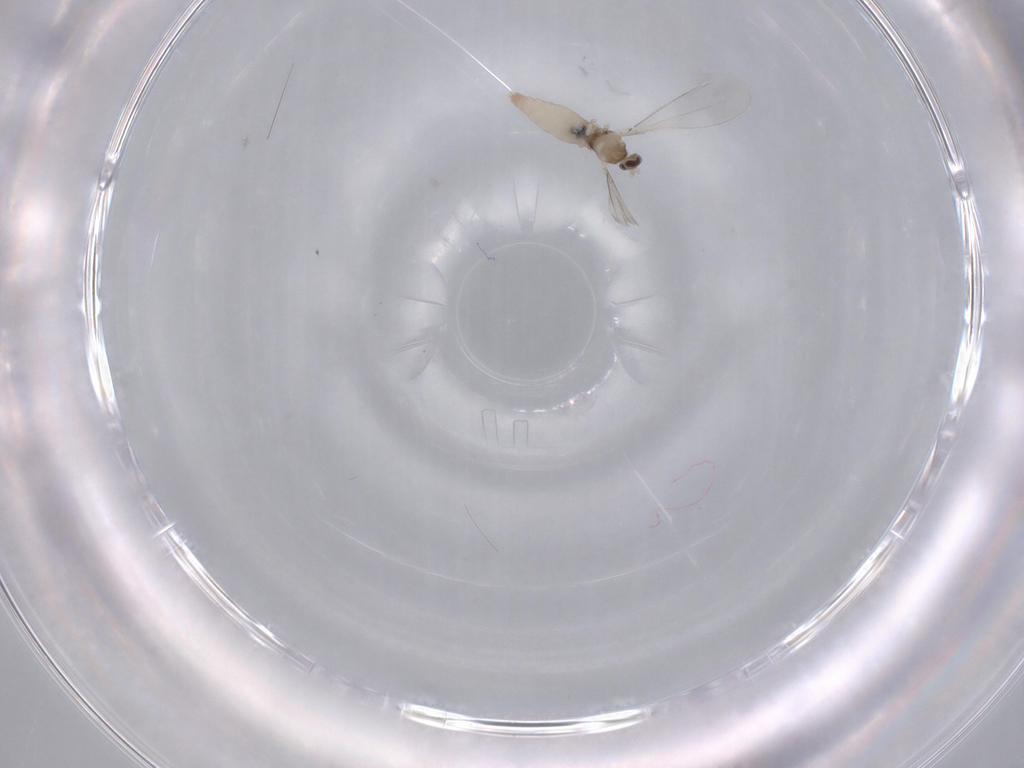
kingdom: Animalia
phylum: Arthropoda
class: Insecta
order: Diptera
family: Cecidomyiidae
